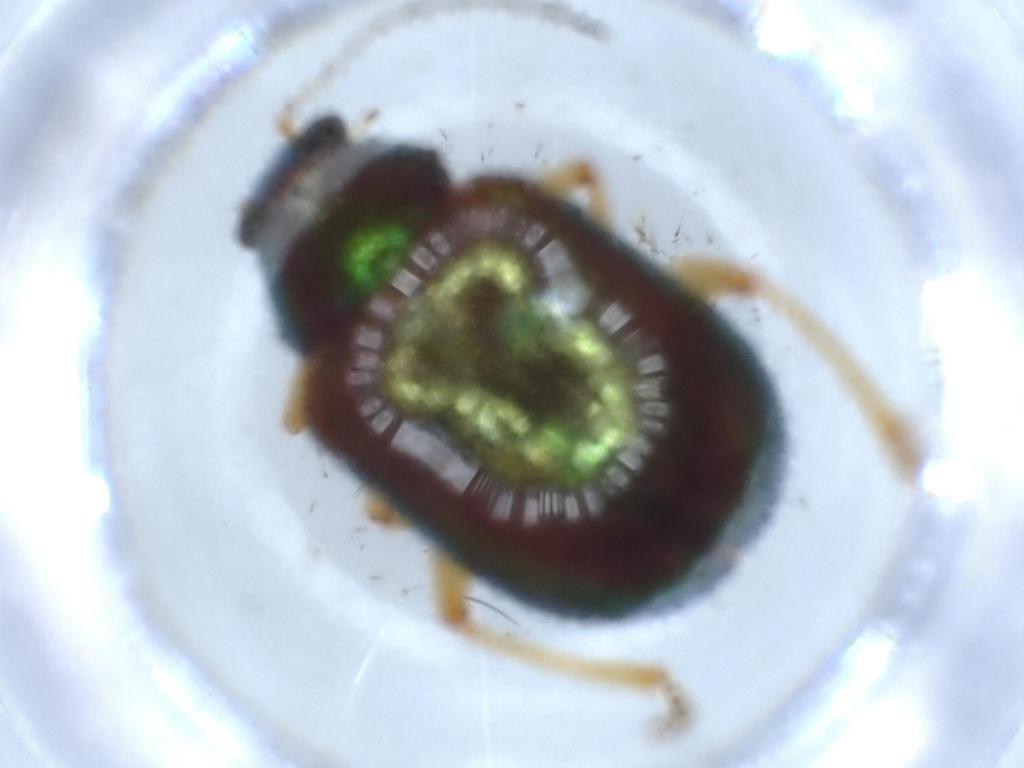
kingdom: Animalia
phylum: Arthropoda
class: Insecta
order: Coleoptera
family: Chrysomelidae
